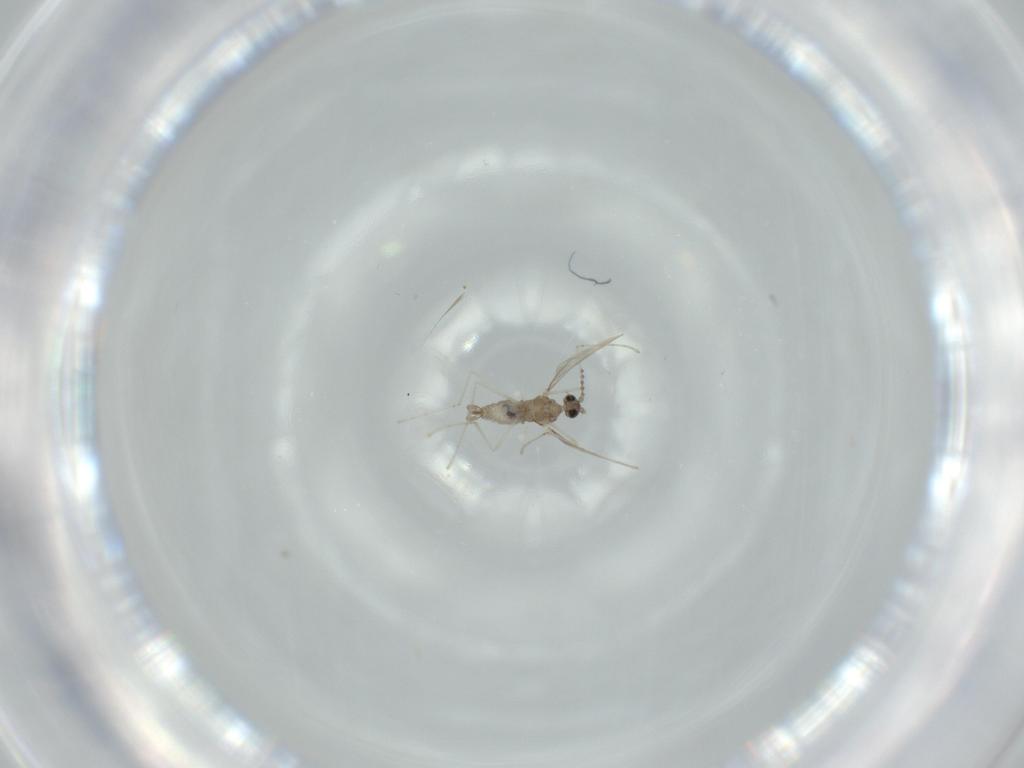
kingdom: Animalia
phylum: Arthropoda
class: Insecta
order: Diptera
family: Cecidomyiidae
